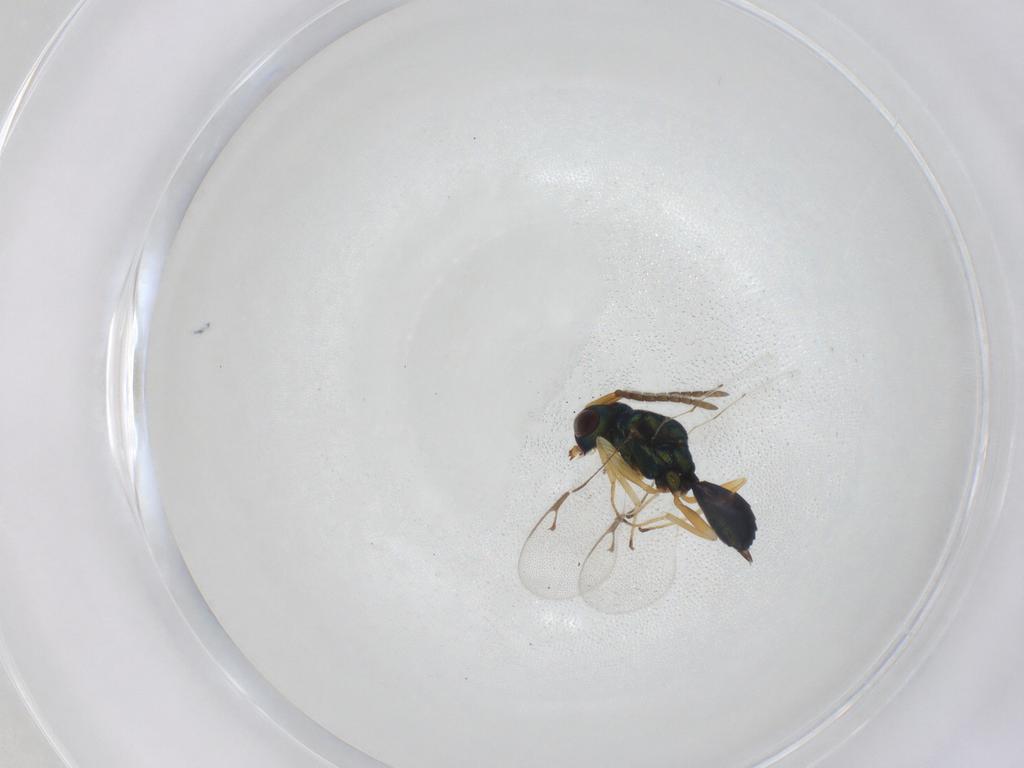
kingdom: Animalia
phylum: Arthropoda
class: Insecta
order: Hymenoptera
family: Pteromalidae
